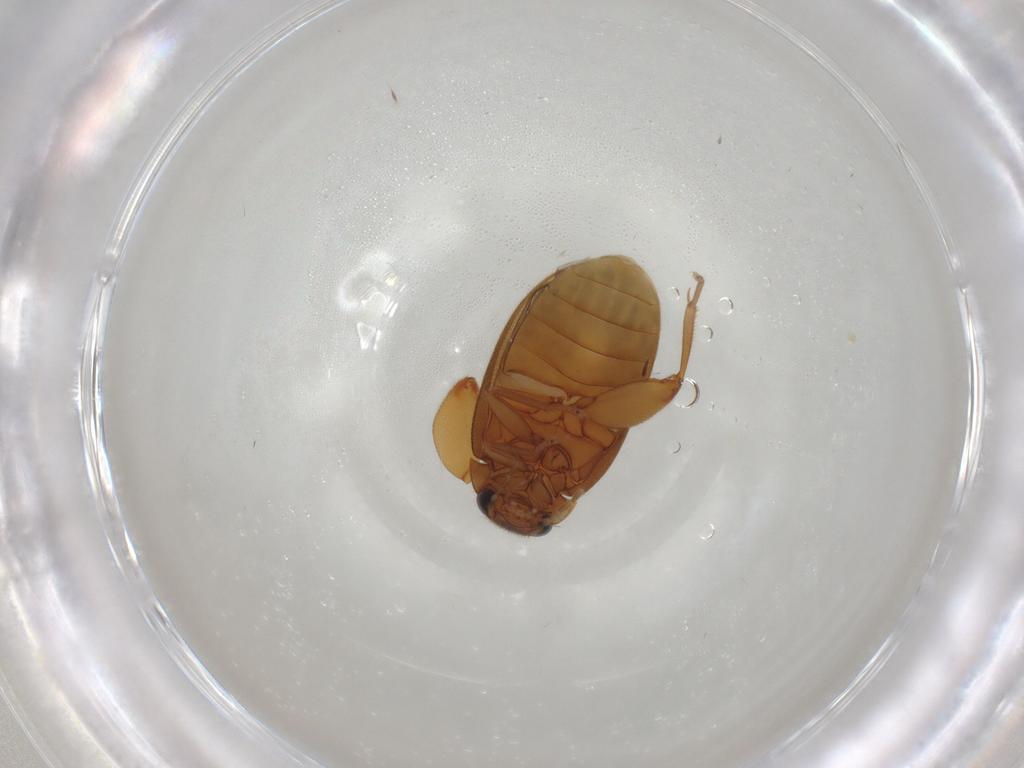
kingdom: Animalia
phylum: Arthropoda
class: Insecta
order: Coleoptera
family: Scirtidae
